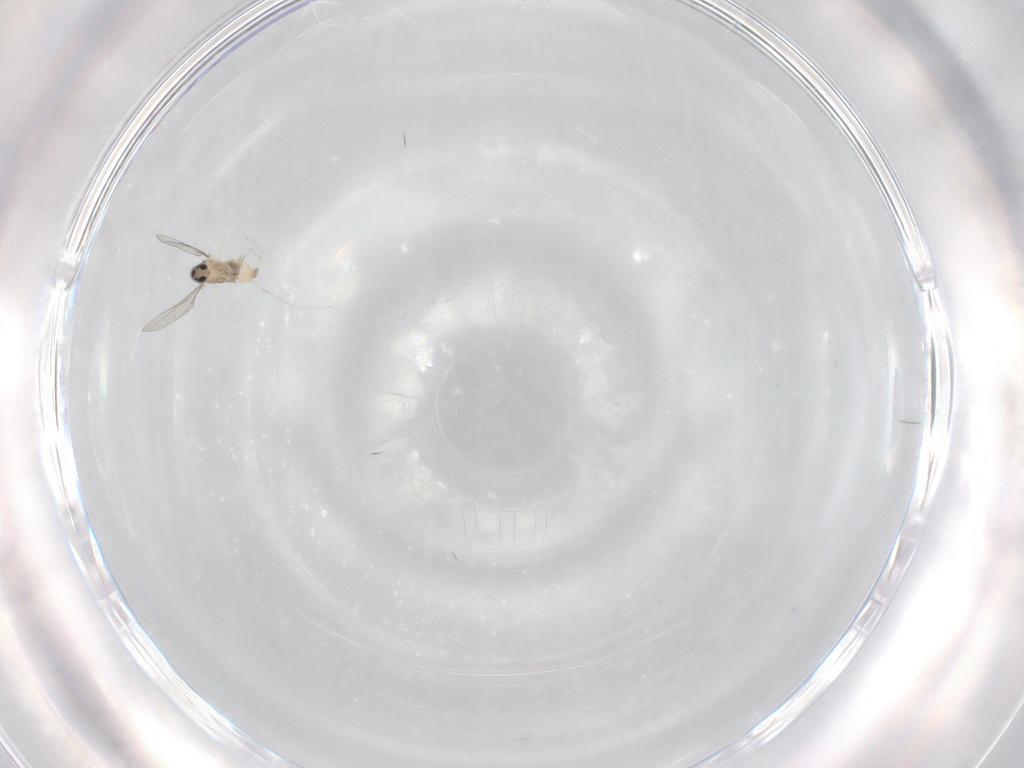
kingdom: Animalia
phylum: Arthropoda
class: Insecta
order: Diptera
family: Cecidomyiidae
